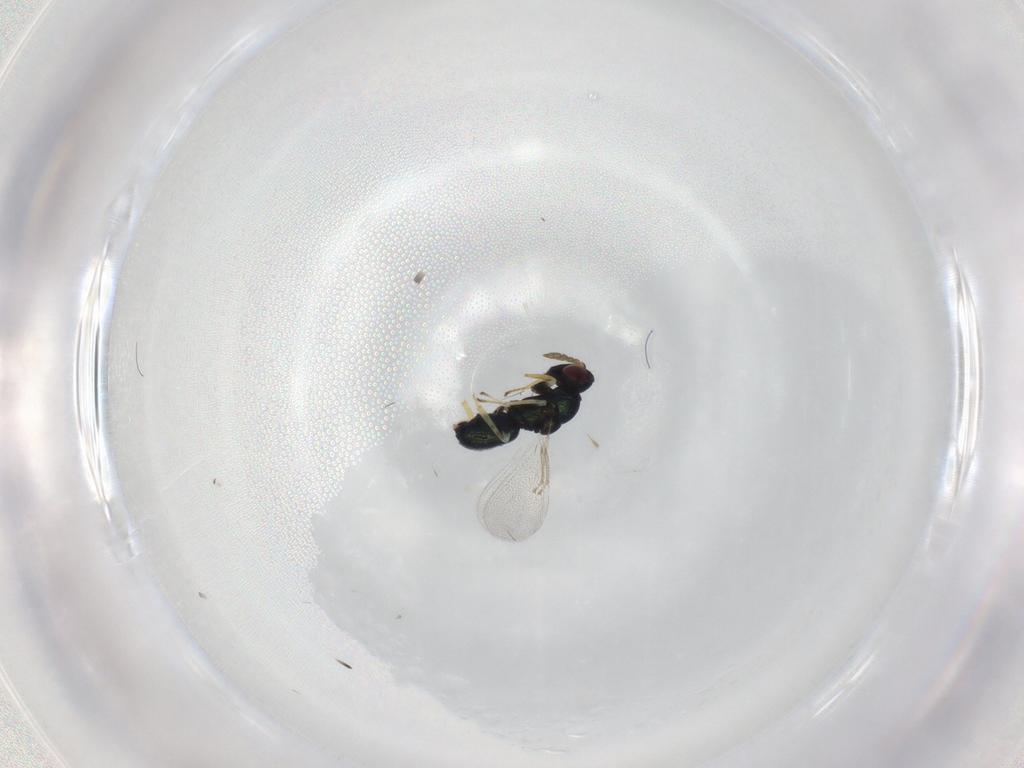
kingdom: Animalia
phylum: Arthropoda
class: Insecta
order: Hymenoptera
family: Eulophidae
